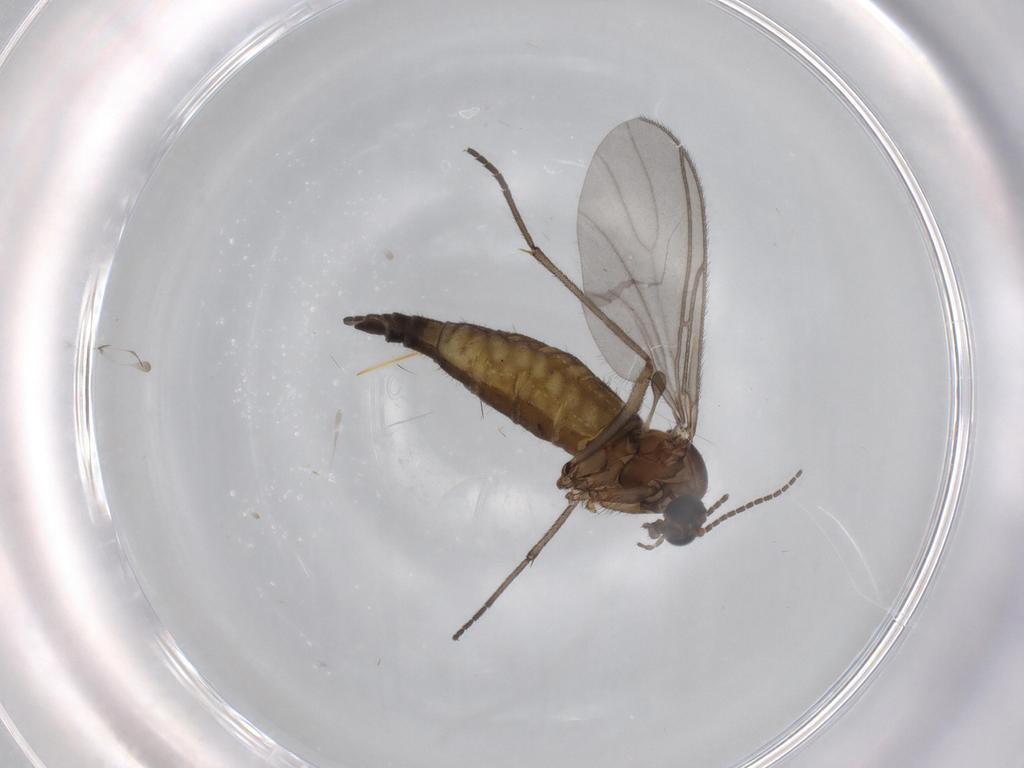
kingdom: Animalia
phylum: Arthropoda
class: Insecta
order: Diptera
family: Sciaridae
